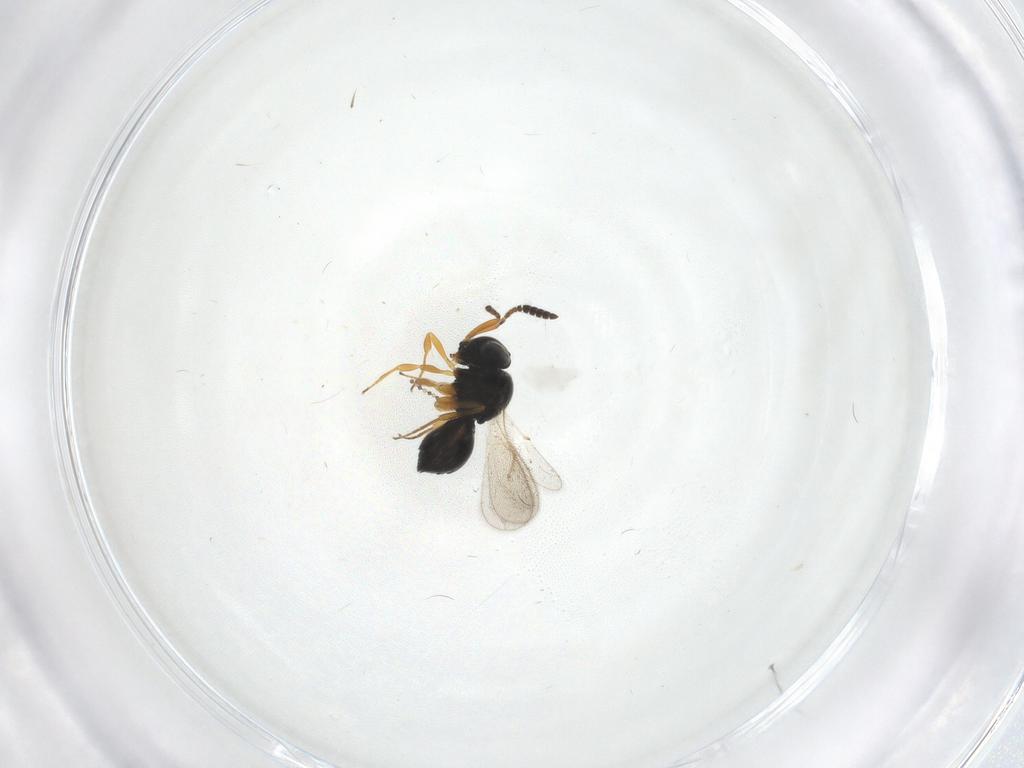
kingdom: Animalia
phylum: Arthropoda
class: Insecta
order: Hymenoptera
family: Scelionidae
